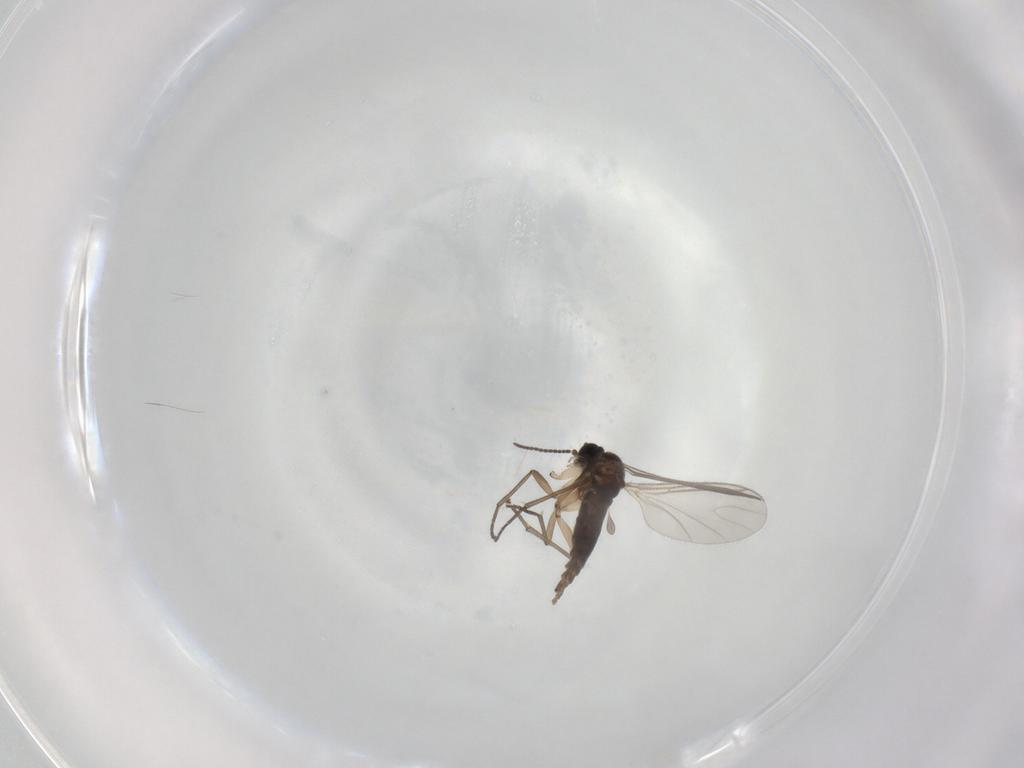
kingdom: Animalia
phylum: Arthropoda
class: Insecta
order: Diptera
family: Sciaridae
